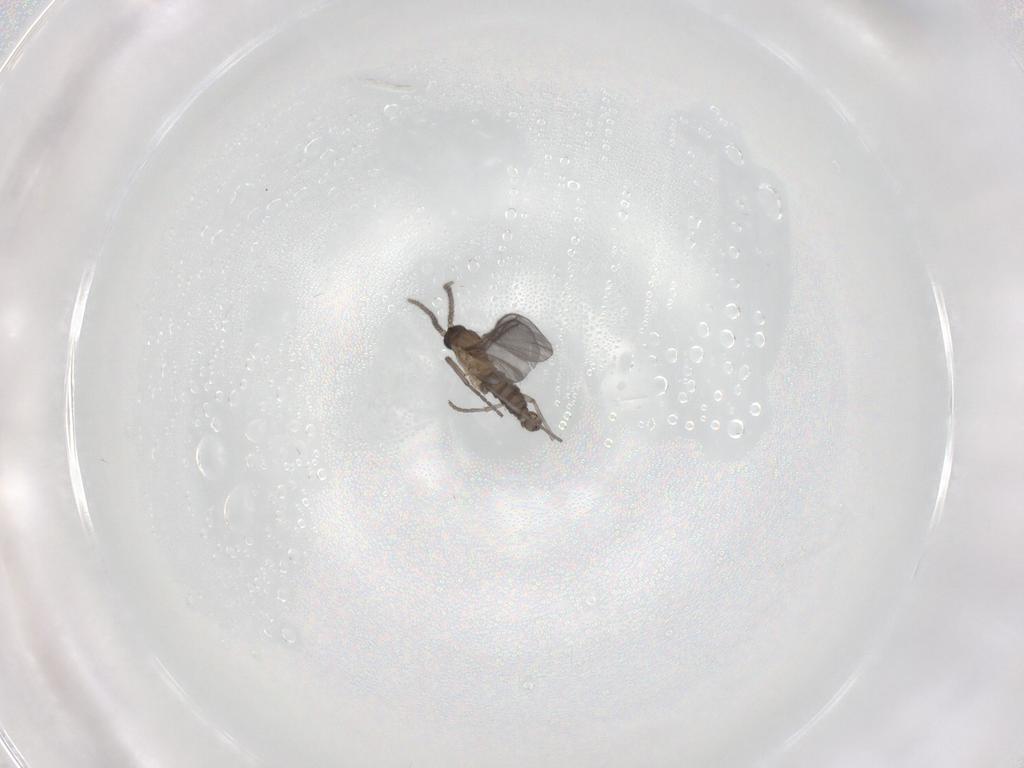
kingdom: Animalia
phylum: Arthropoda
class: Insecta
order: Diptera
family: Sciaridae
